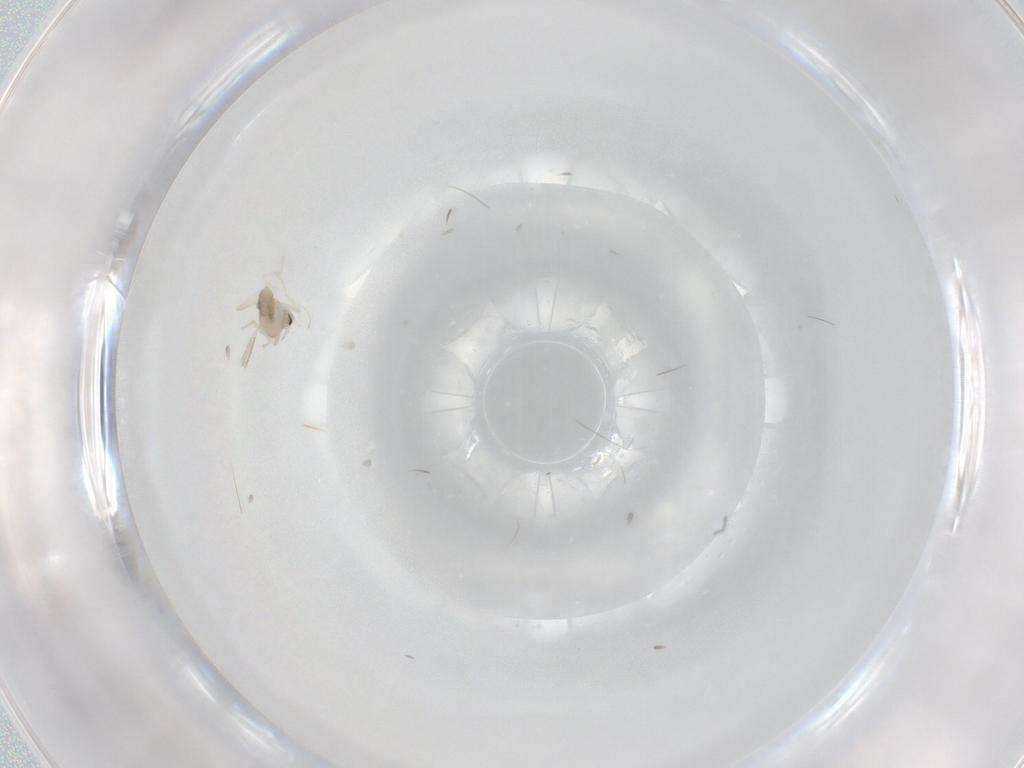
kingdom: Animalia
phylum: Arthropoda
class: Insecta
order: Diptera
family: Cecidomyiidae
